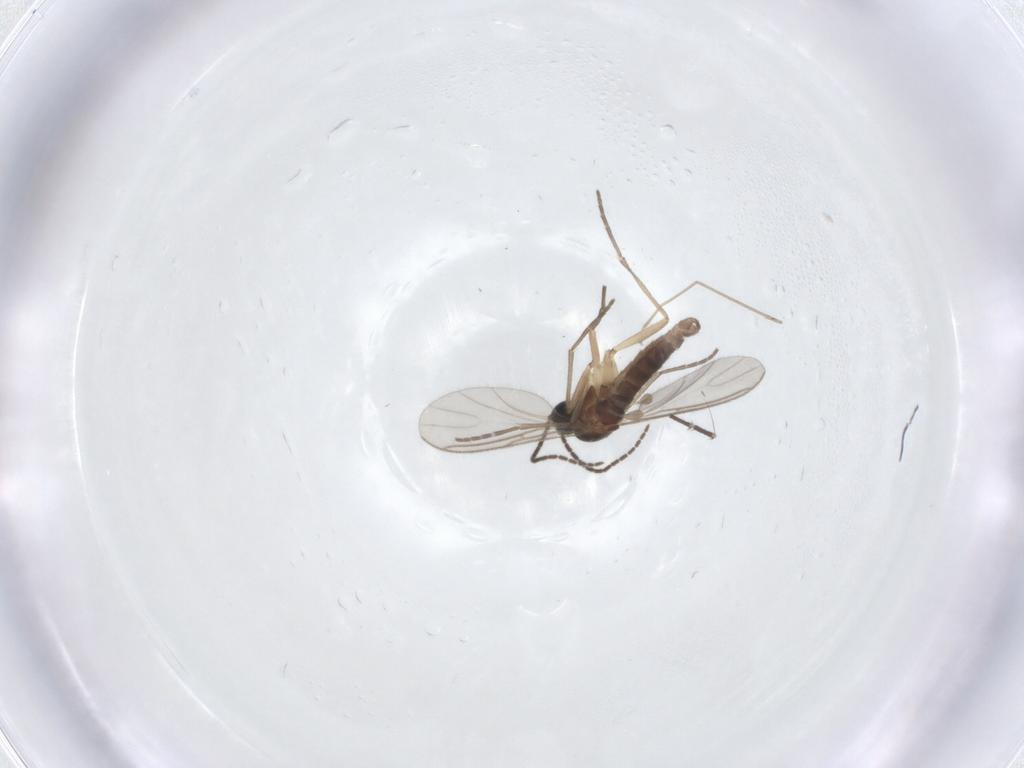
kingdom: Animalia
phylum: Arthropoda
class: Insecta
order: Diptera
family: Sciaridae
